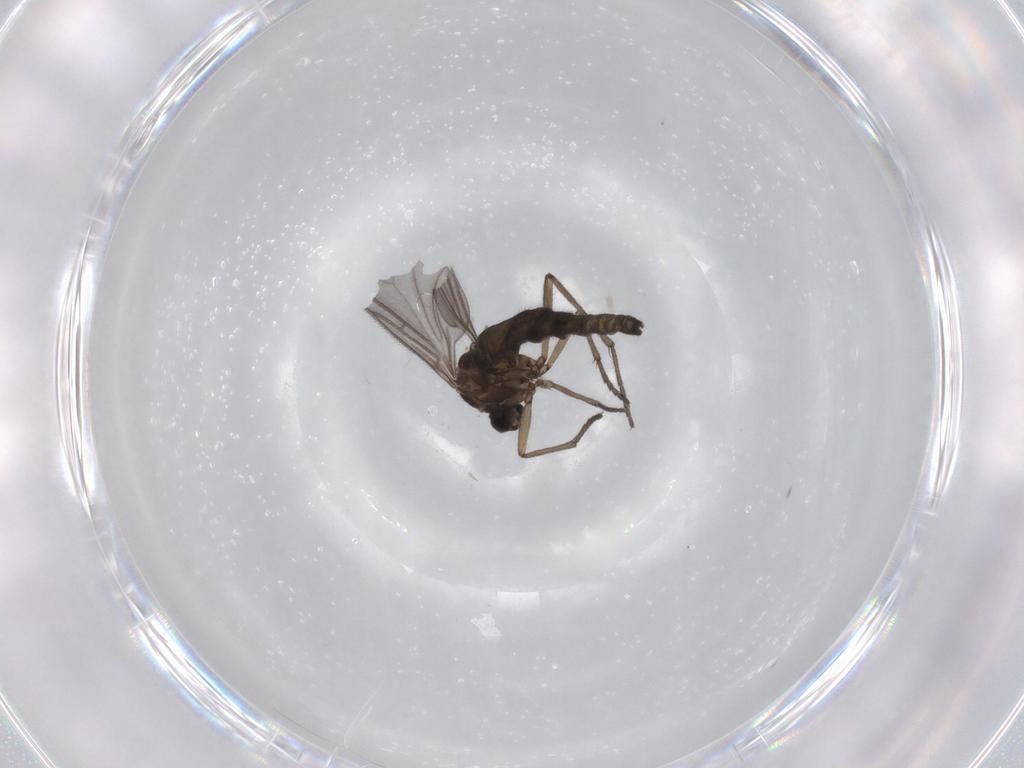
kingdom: Animalia
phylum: Arthropoda
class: Insecta
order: Diptera
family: Sciaridae
